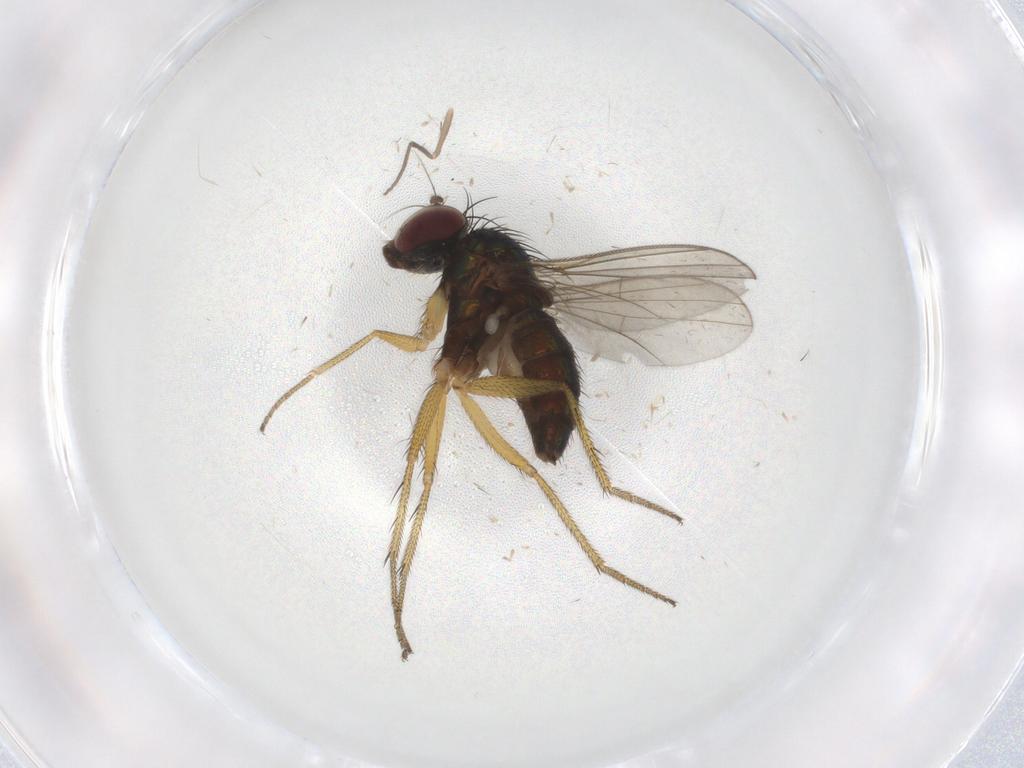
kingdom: Animalia
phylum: Arthropoda
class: Insecta
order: Diptera
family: Dolichopodidae
